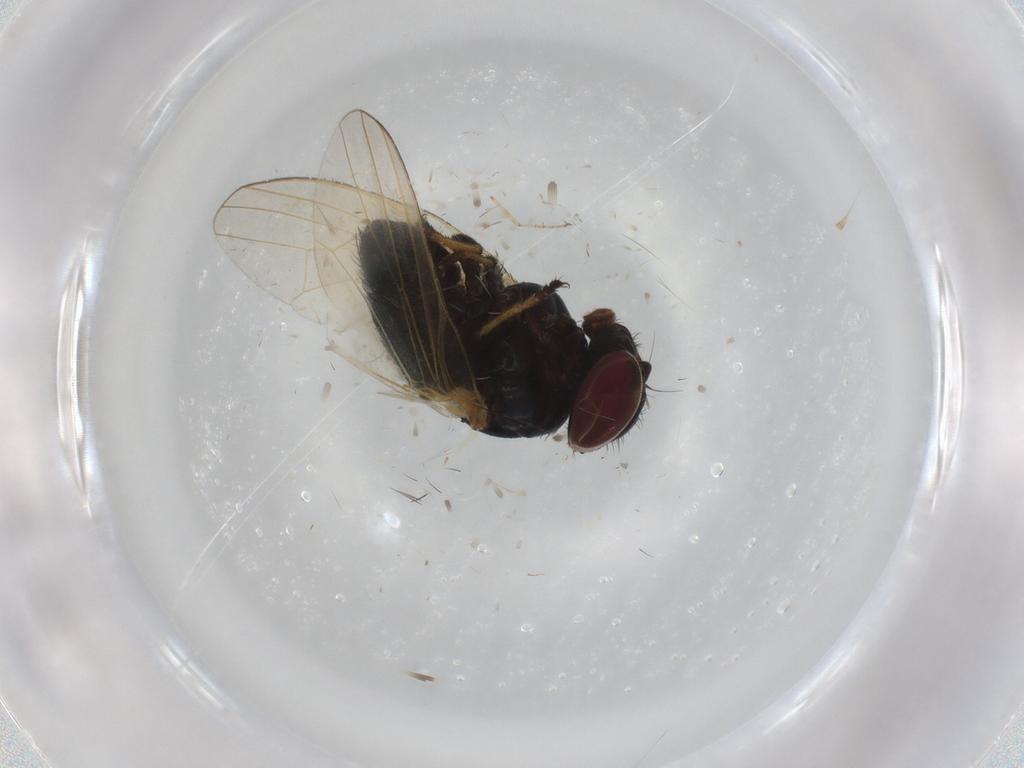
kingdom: Animalia
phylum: Arthropoda
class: Insecta
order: Diptera
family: Lonchaeidae
